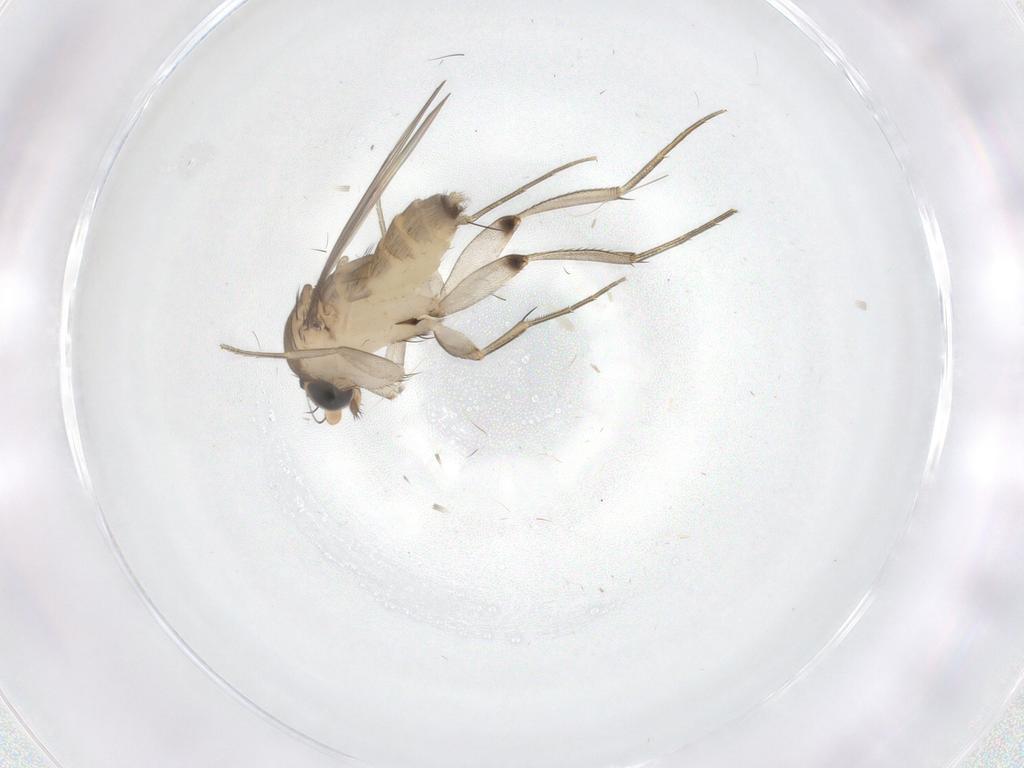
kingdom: Animalia
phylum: Arthropoda
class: Insecta
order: Diptera
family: Phoridae
